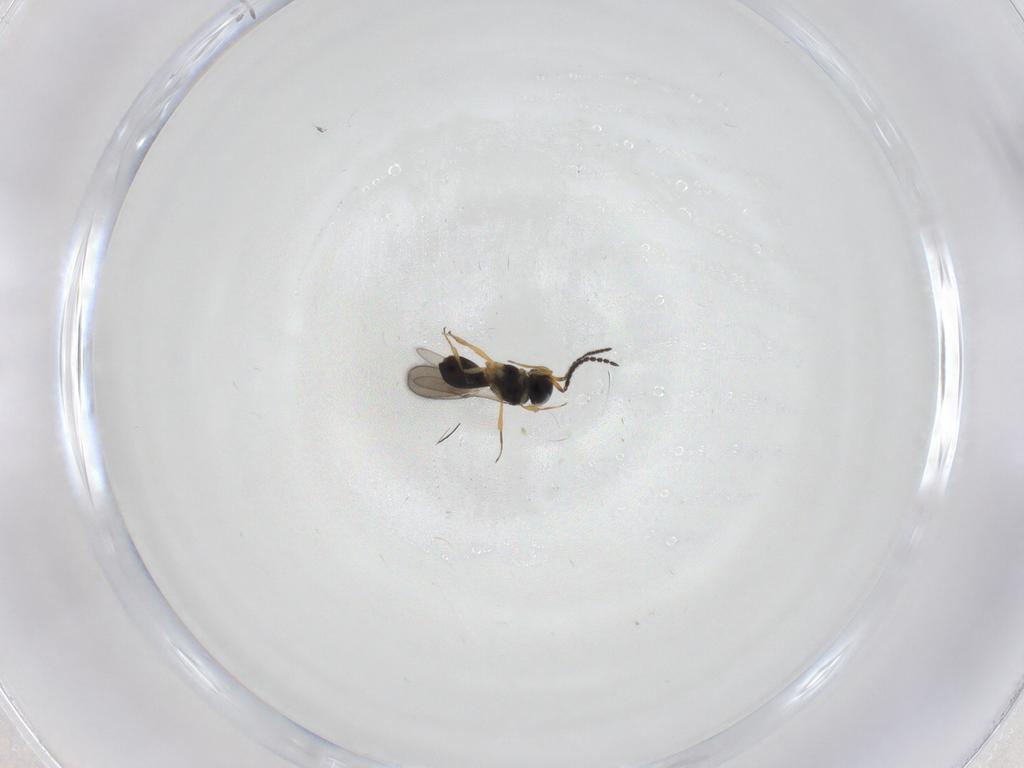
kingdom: Animalia
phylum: Arthropoda
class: Insecta
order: Hymenoptera
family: Scelionidae
